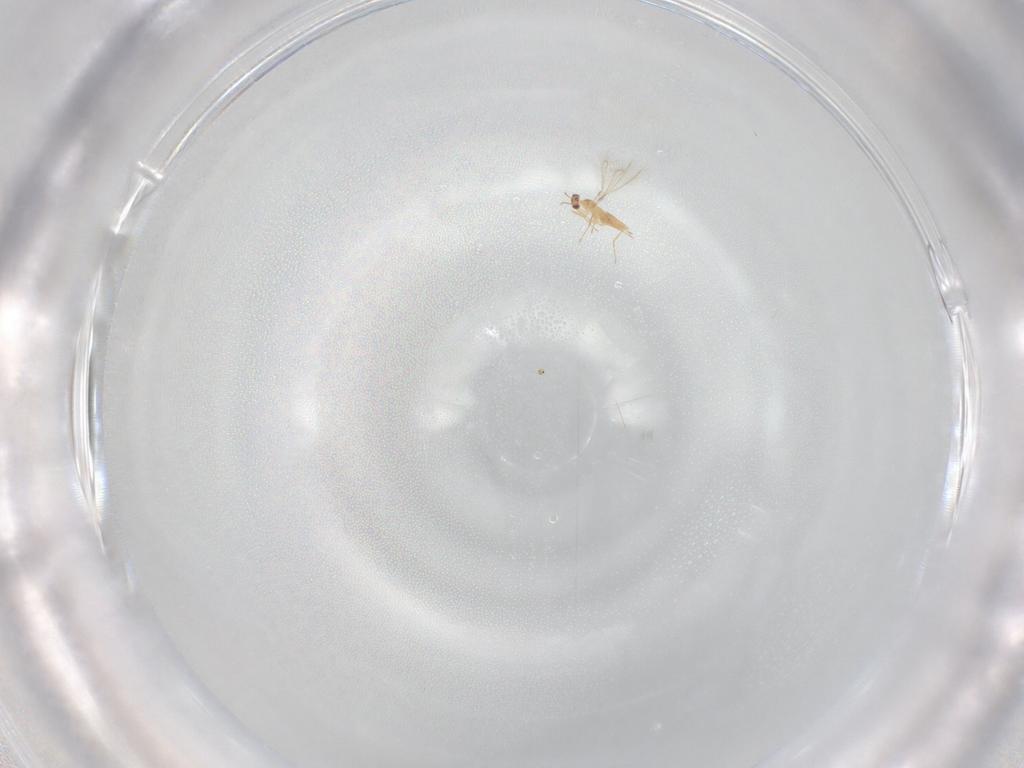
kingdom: Animalia
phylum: Arthropoda
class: Insecta
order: Hymenoptera
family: Mymaridae
